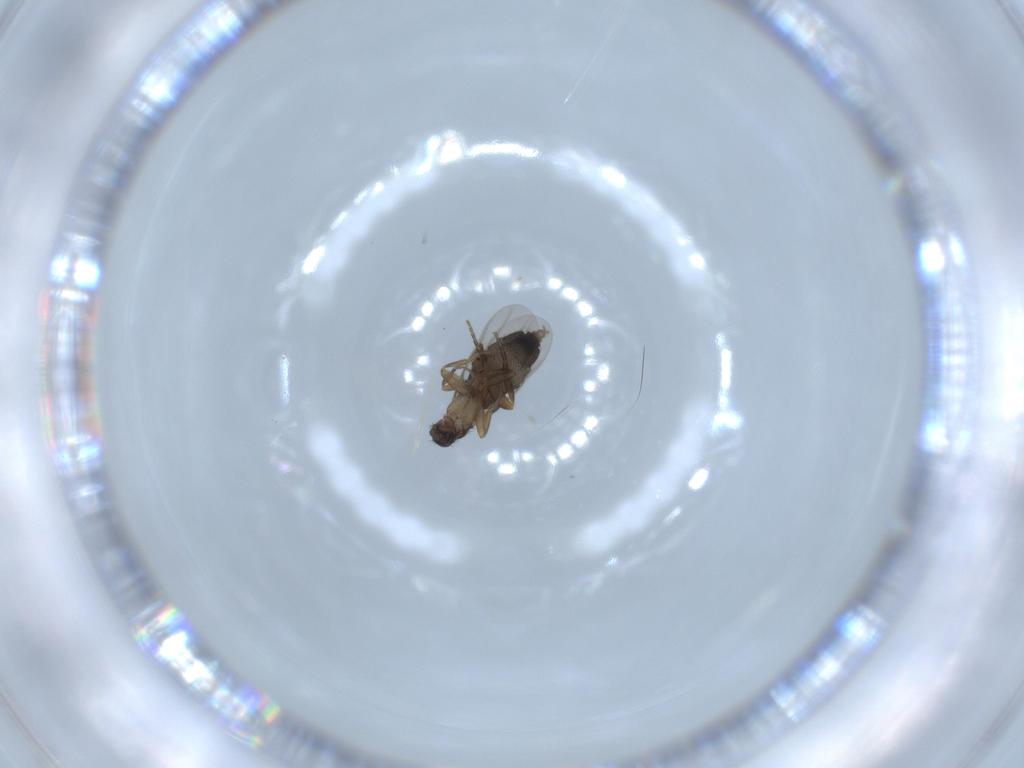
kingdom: Animalia
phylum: Arthropoda
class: Insecta
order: Diptera
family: Phoridae
